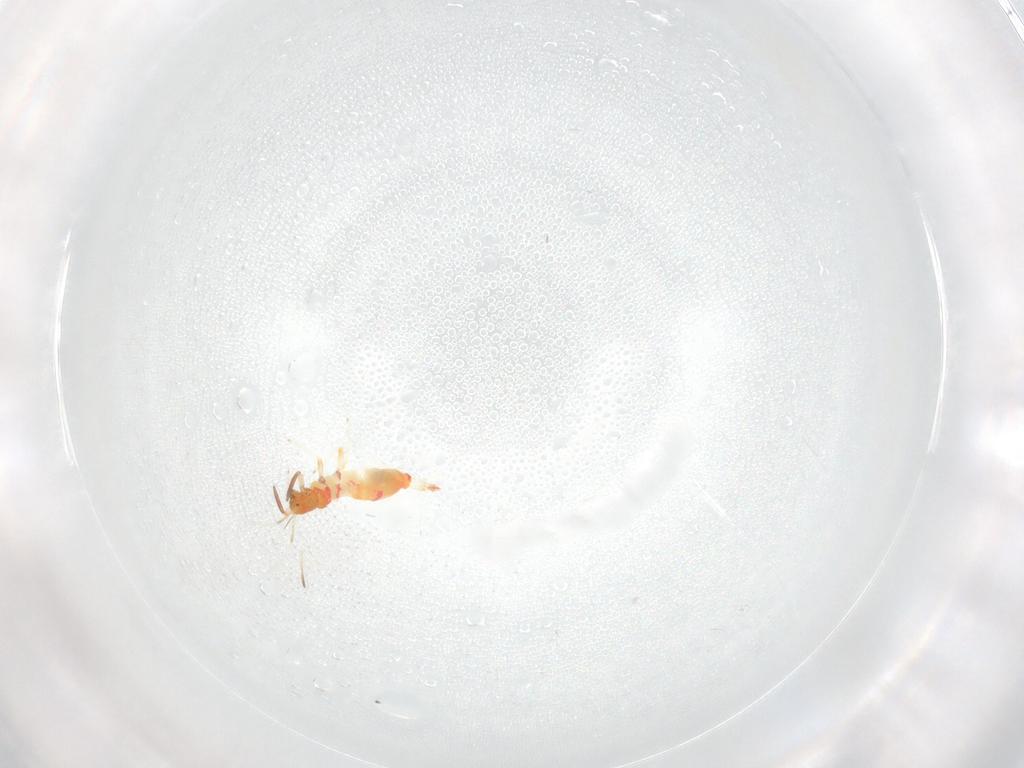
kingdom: Animalia
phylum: Arthropoda
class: Insecta
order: Thysanoptera
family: Aeolothripidae
